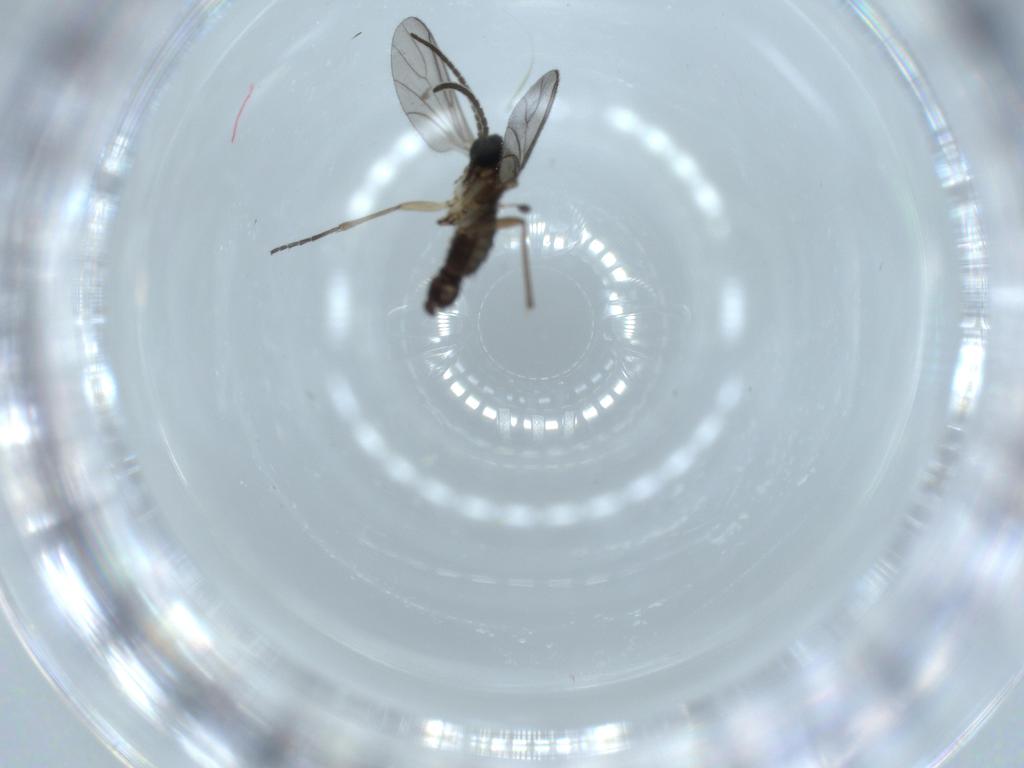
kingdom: Animalia
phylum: Arthropoda
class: Insecta
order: Diptera
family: Sciaridae
